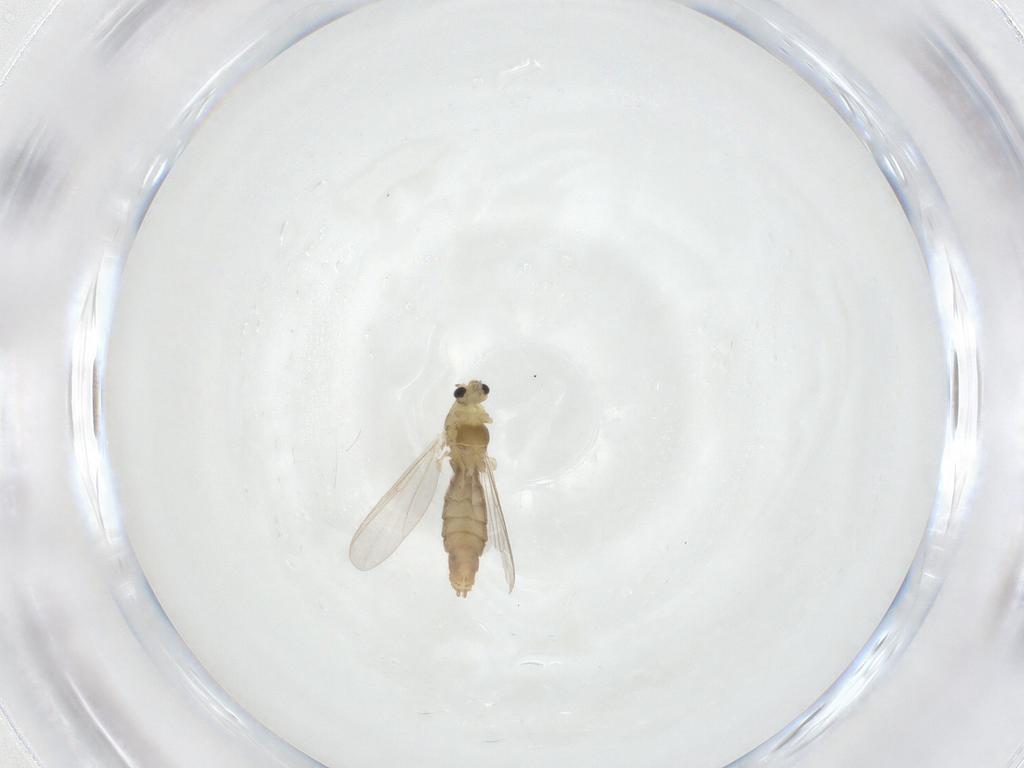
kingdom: Animalia
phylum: Arthropoda
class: Insecta
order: Diptera
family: Chironomidae
